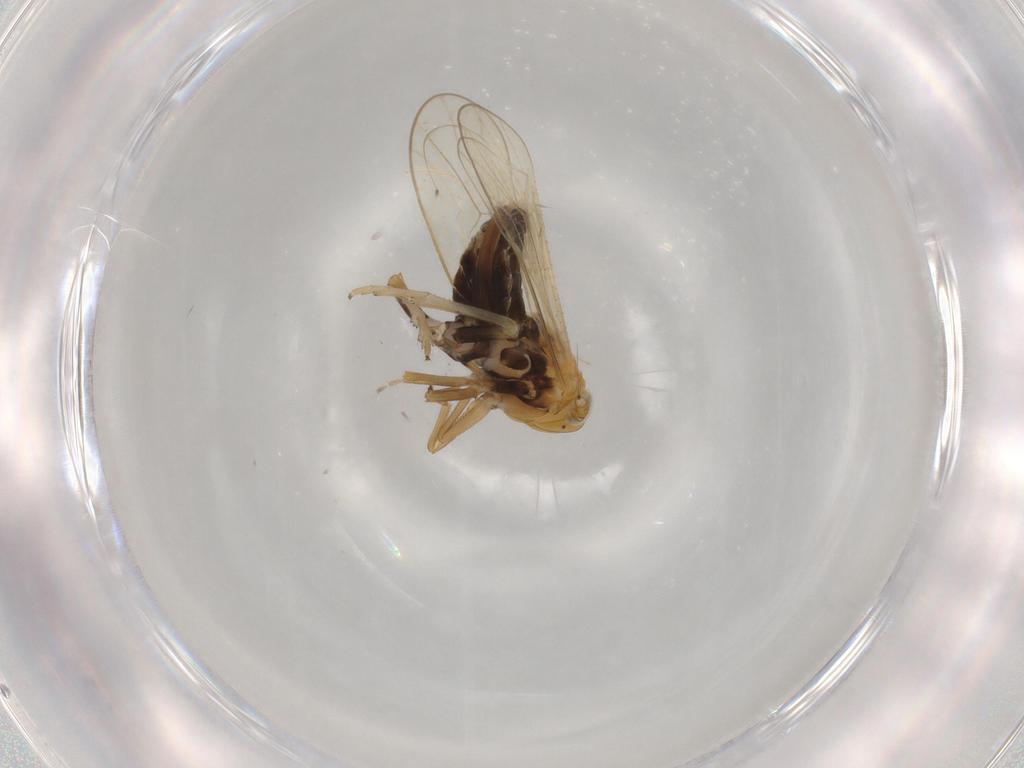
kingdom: Animalia
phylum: Arthropoda
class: Insecta
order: Hemiptera
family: Delphacidae
